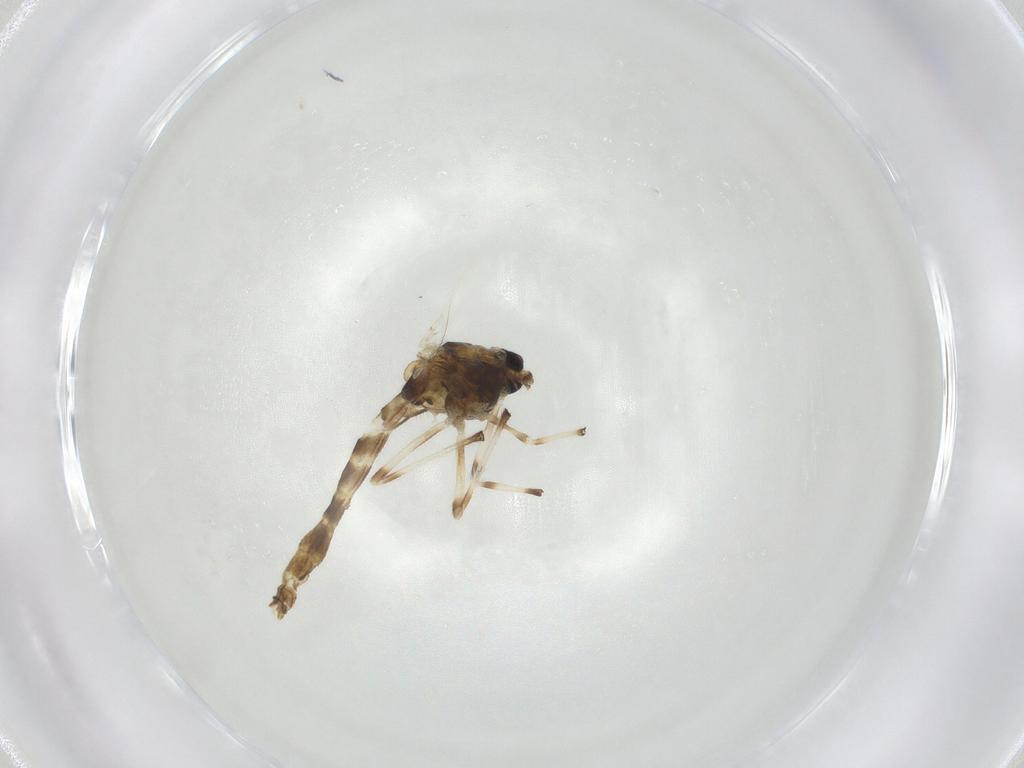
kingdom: Animalia
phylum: Arthropoda
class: Insecta
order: Diptera
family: Chironomidae
